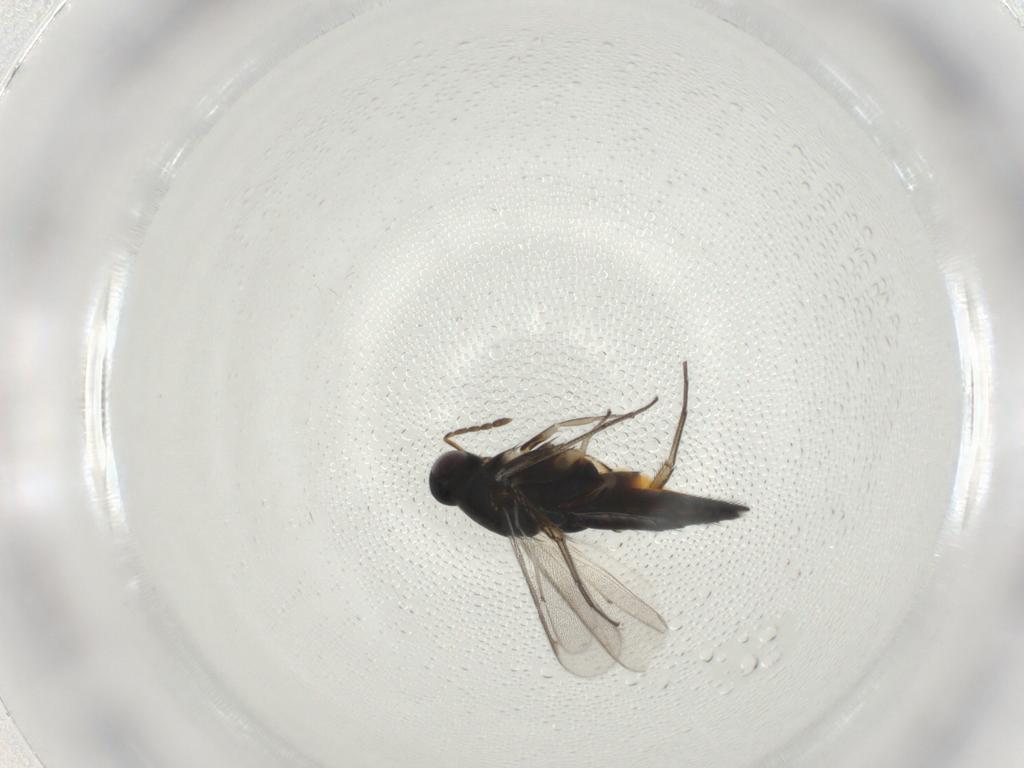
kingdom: Animalia
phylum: Arthropoda
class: Insecta
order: Hymenoptera
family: Eulophidae
